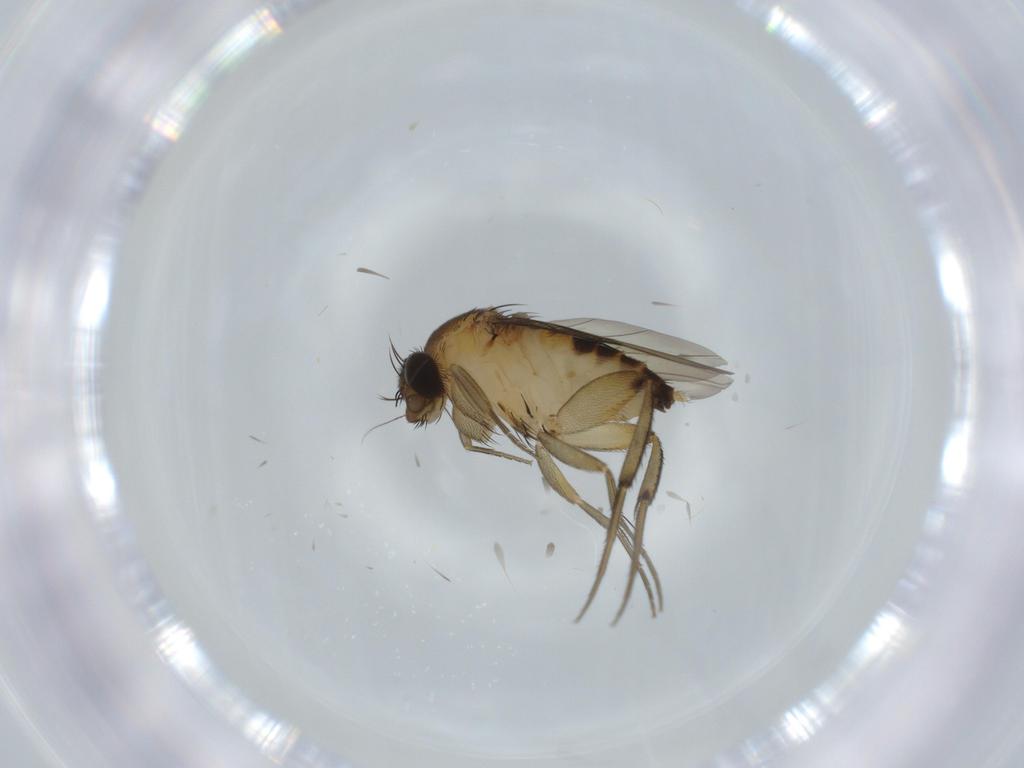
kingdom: Animalia
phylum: Arthropoda
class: Insecta
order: Diptera
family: Phoridae
